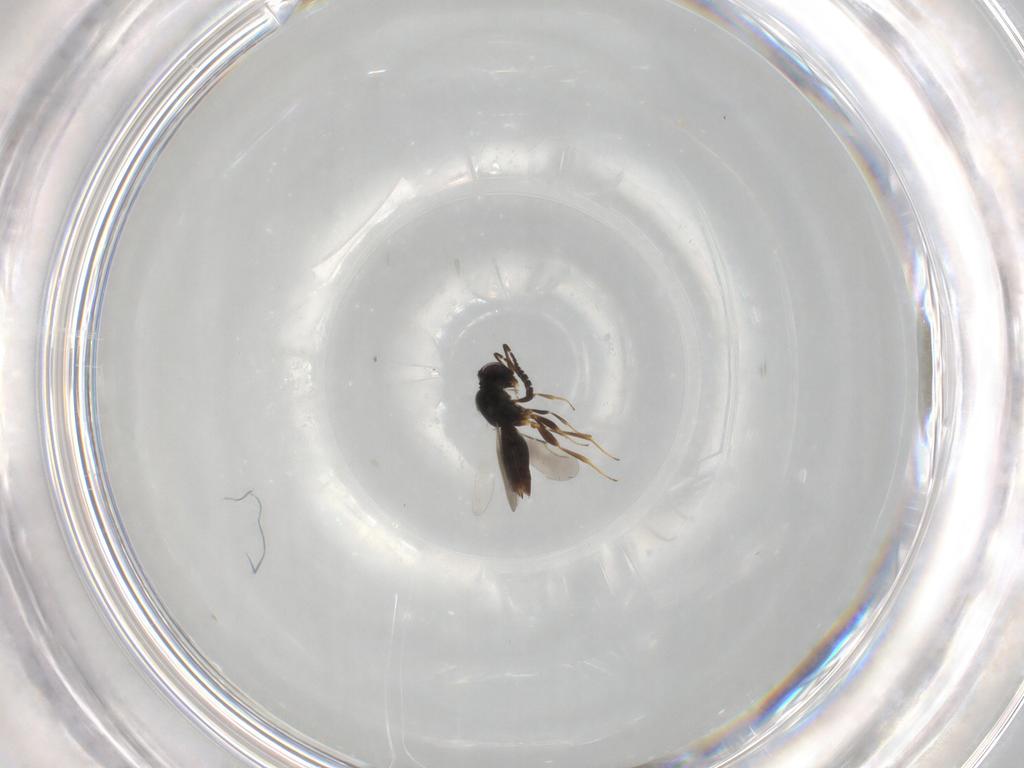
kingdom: Animalia
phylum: Arthropoda
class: Insecta
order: Hymenoptera
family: Ceraphronidae
